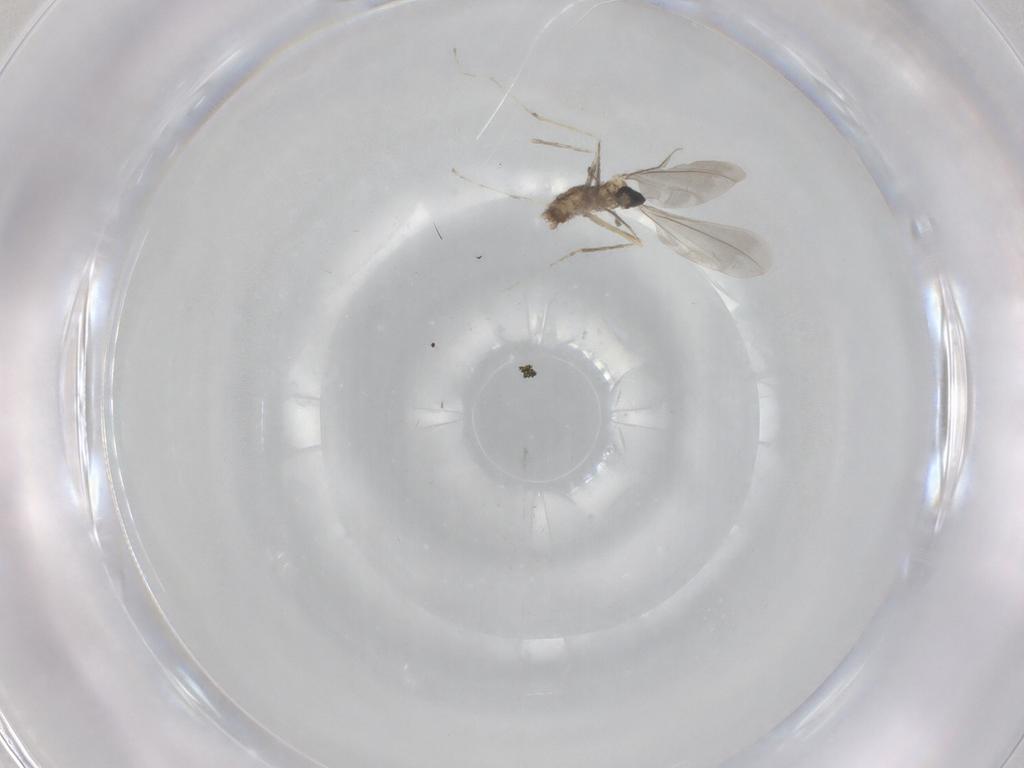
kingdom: Animalia
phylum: Arthropoda
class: Insecta
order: Diptera
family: Cecidomyiidae
